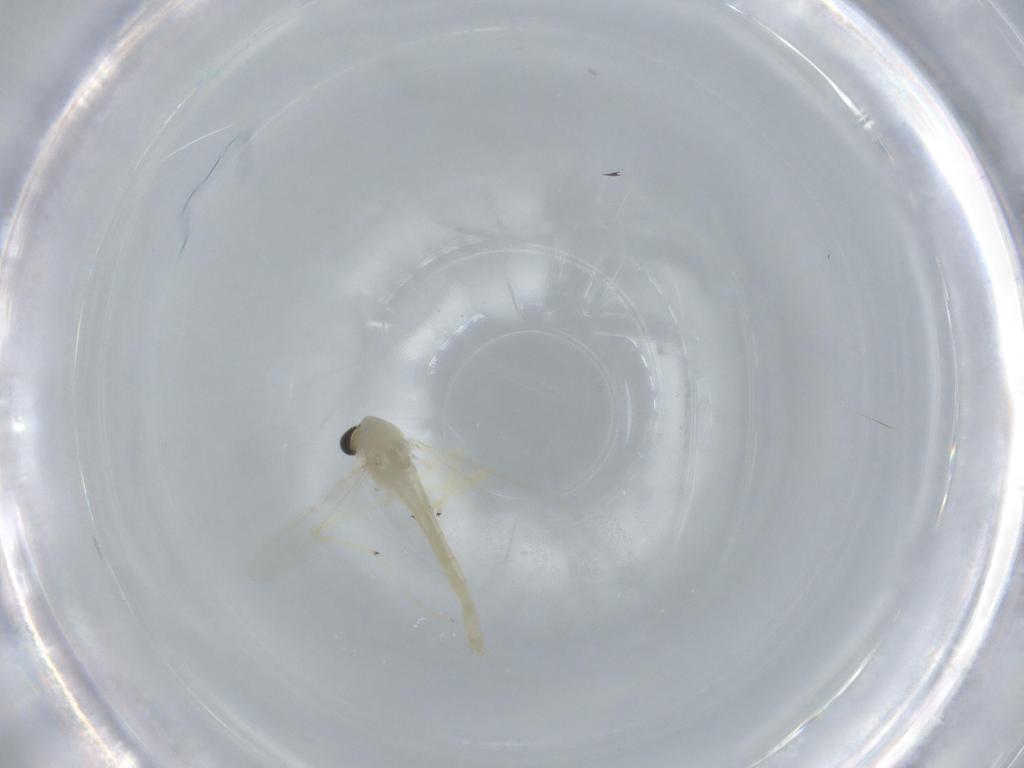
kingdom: Animalia
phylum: Arthropoda
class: Insecta
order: Diptera
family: Chironomidae
